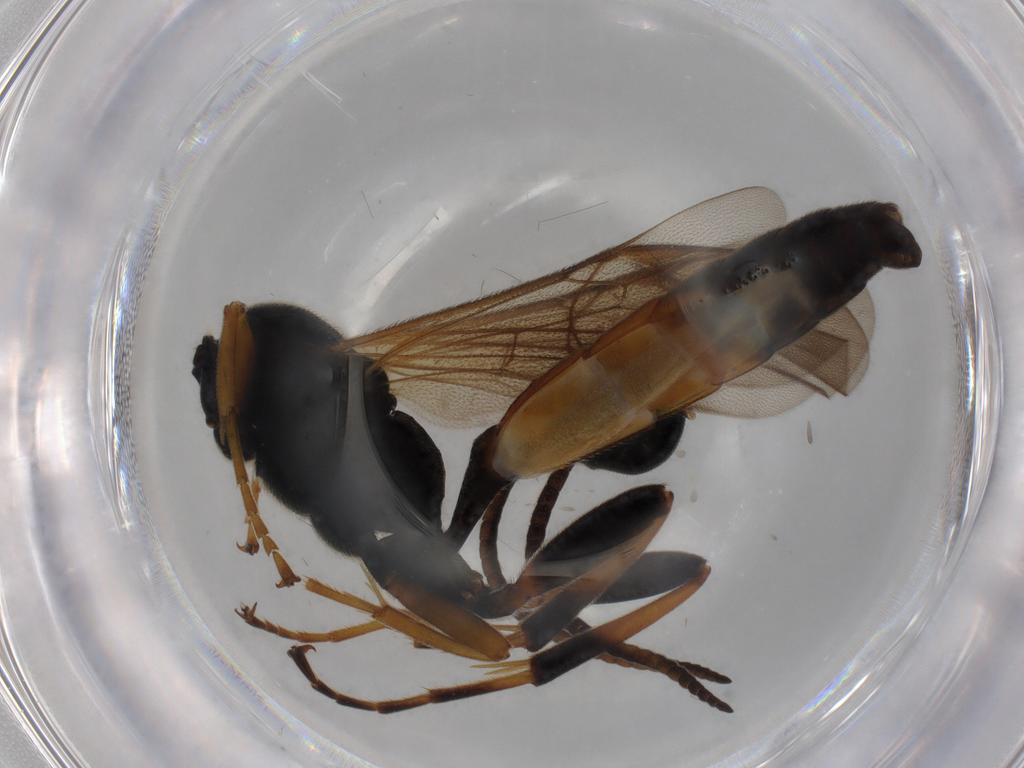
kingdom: Animalia
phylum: Arthropoda
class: Insecta
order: Hymenoptera
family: Ichneumonidae
